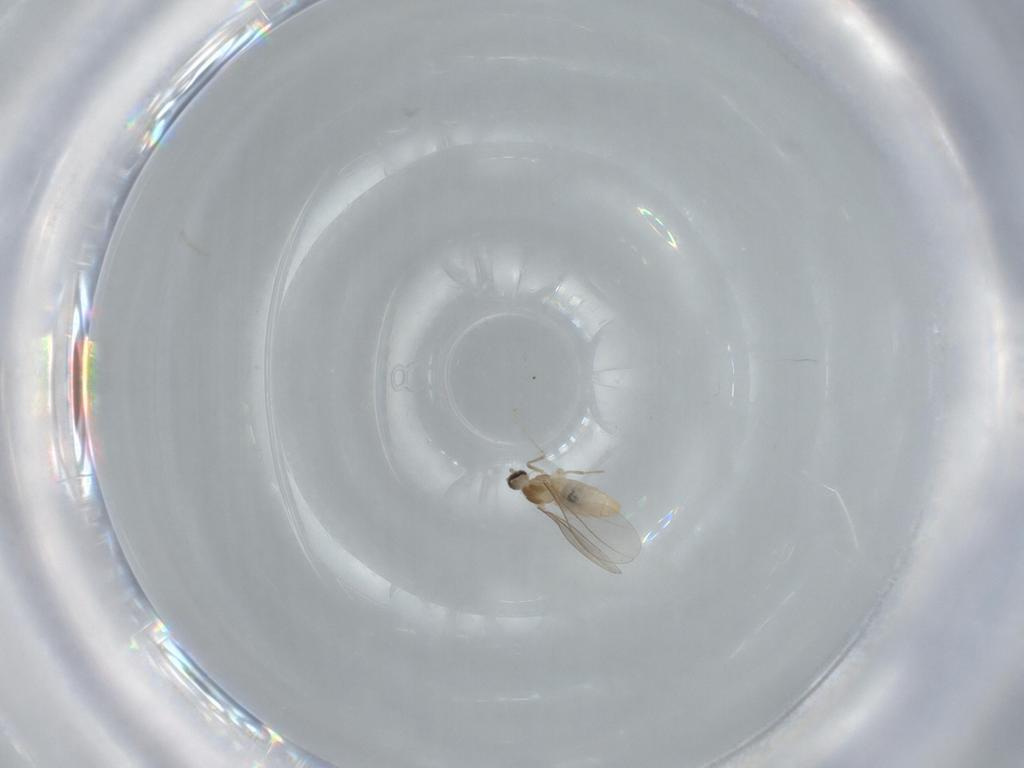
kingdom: Animalia
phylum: Arthropoda
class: Insecta
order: Diptera
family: Cecidomyiidae
